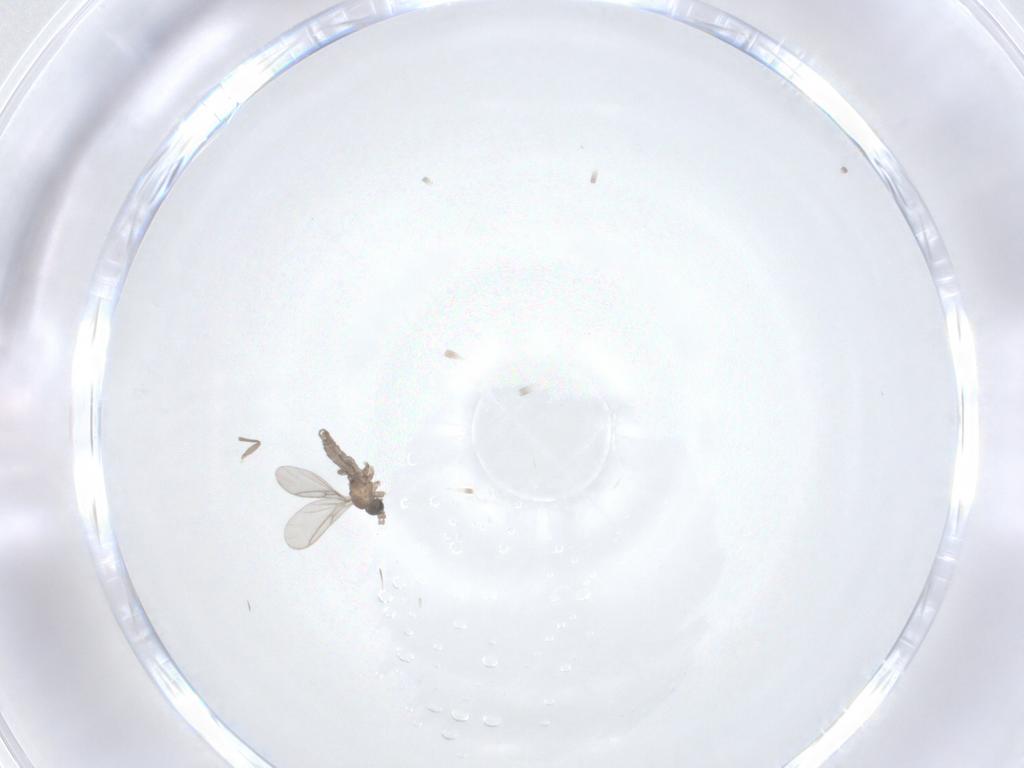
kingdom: Animalia
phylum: Arthropoda
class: Insecta
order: Diptera
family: Sciaridae
